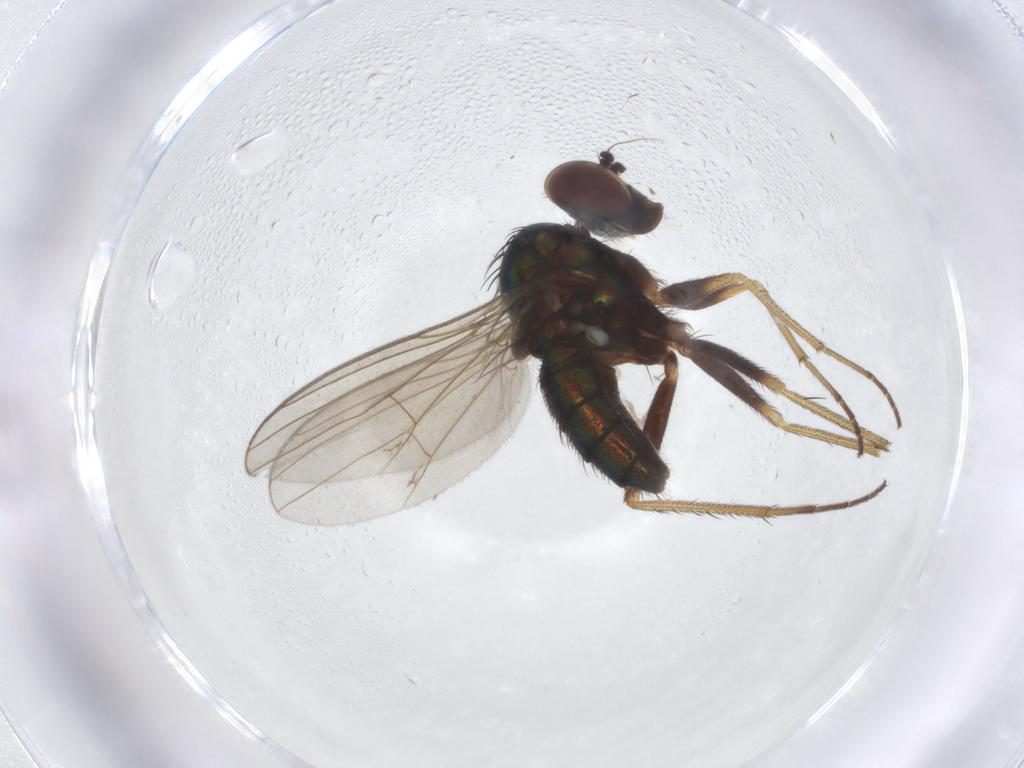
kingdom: Animalia
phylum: Arthropoda
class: Insecta
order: Diptera
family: Dolichopodidae
